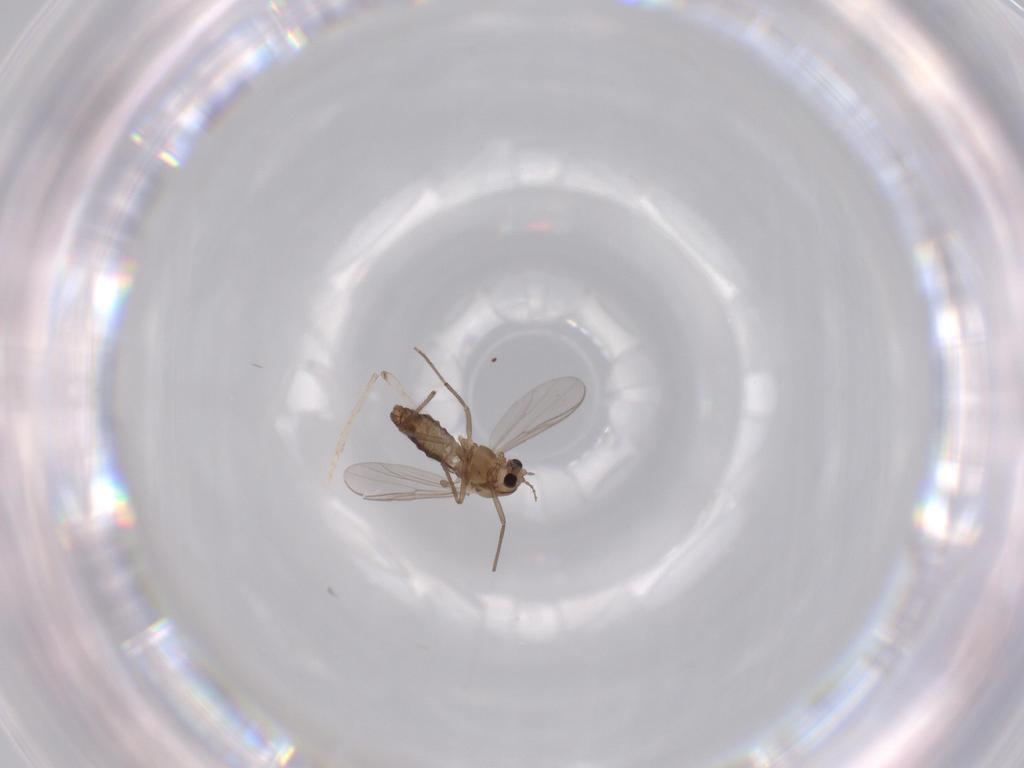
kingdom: Animalia
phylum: Arthropoda
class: Insecta
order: Diptera
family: Chironomidae
